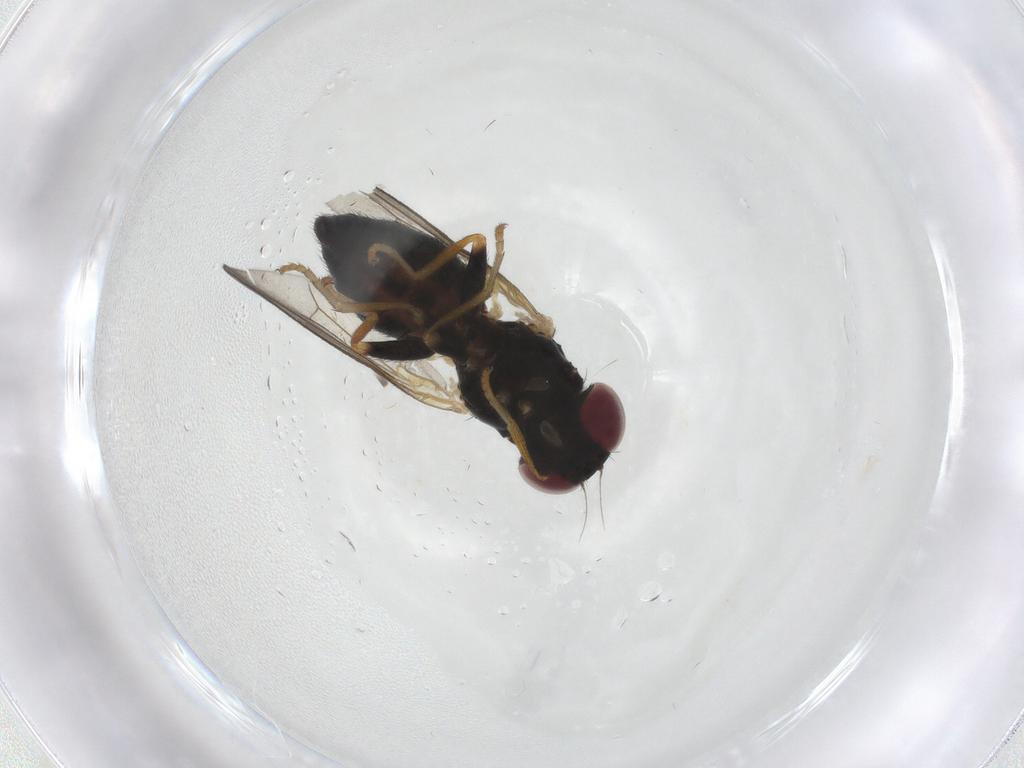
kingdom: Animalia
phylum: Arthropoda
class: Insecta
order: Diptera
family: Chamaemyiidae
